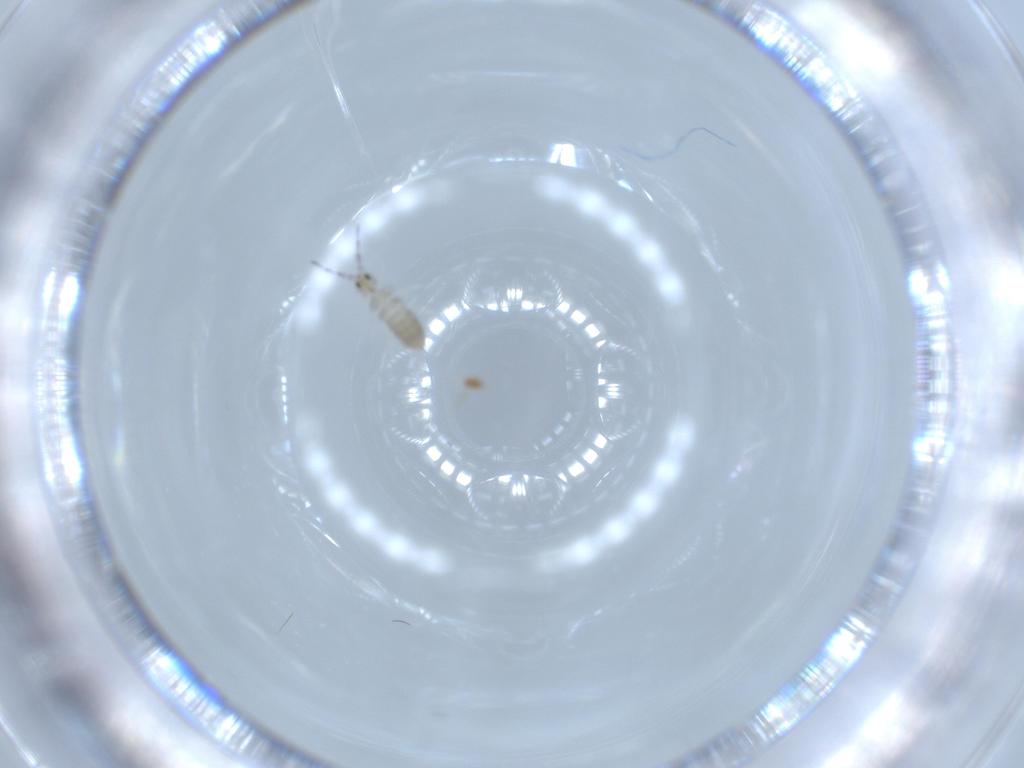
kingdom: Animalia
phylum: Arthropoda
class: Collembola
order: Entomobryomorpha
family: Entomobryidae
